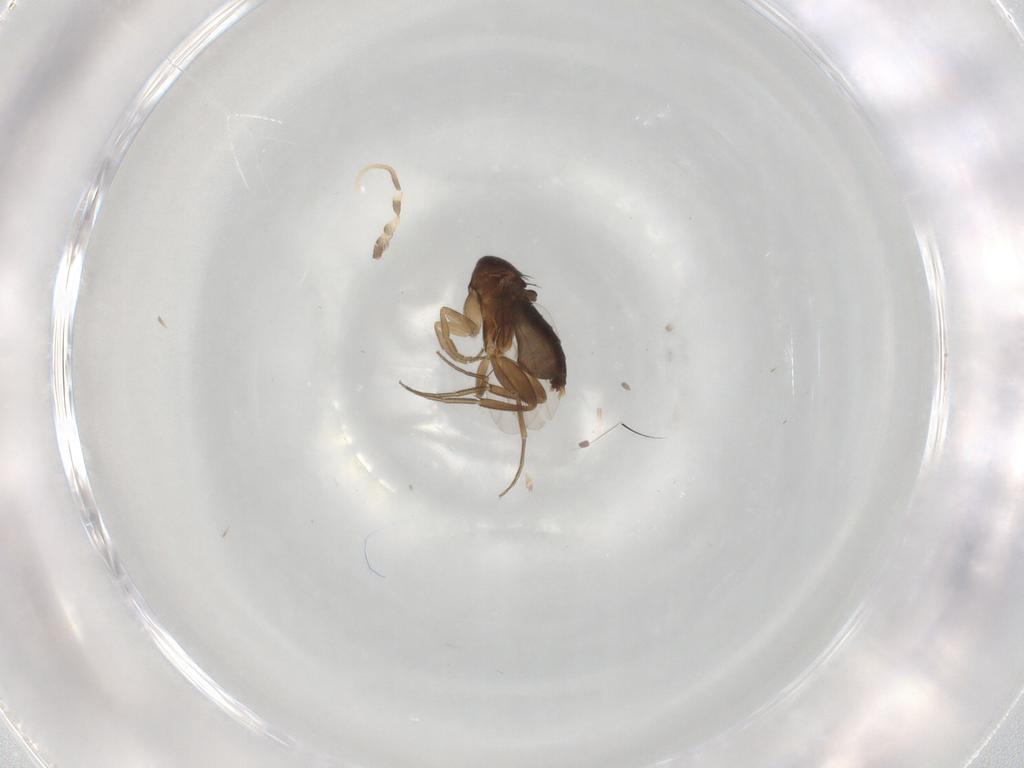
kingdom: Animalia
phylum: Arthropoda
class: Insecta
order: Diptera
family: Phoridae
